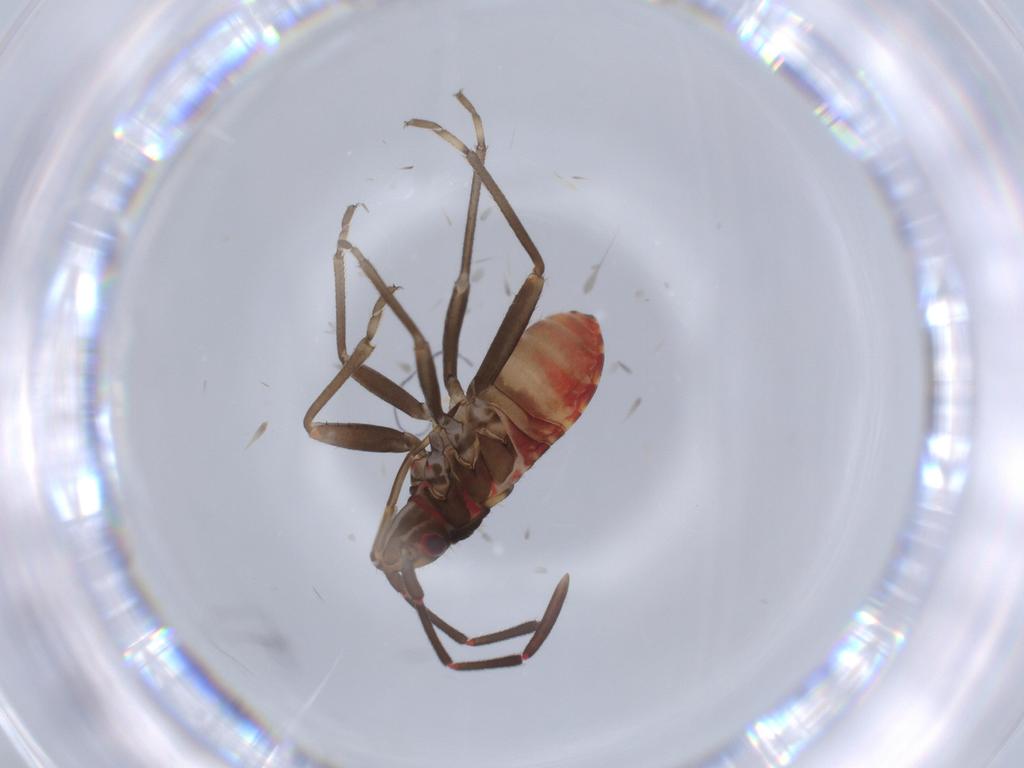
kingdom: Animalia
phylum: Arthropoda
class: Insecta
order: Hemiptera
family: Rhyparochromidae
